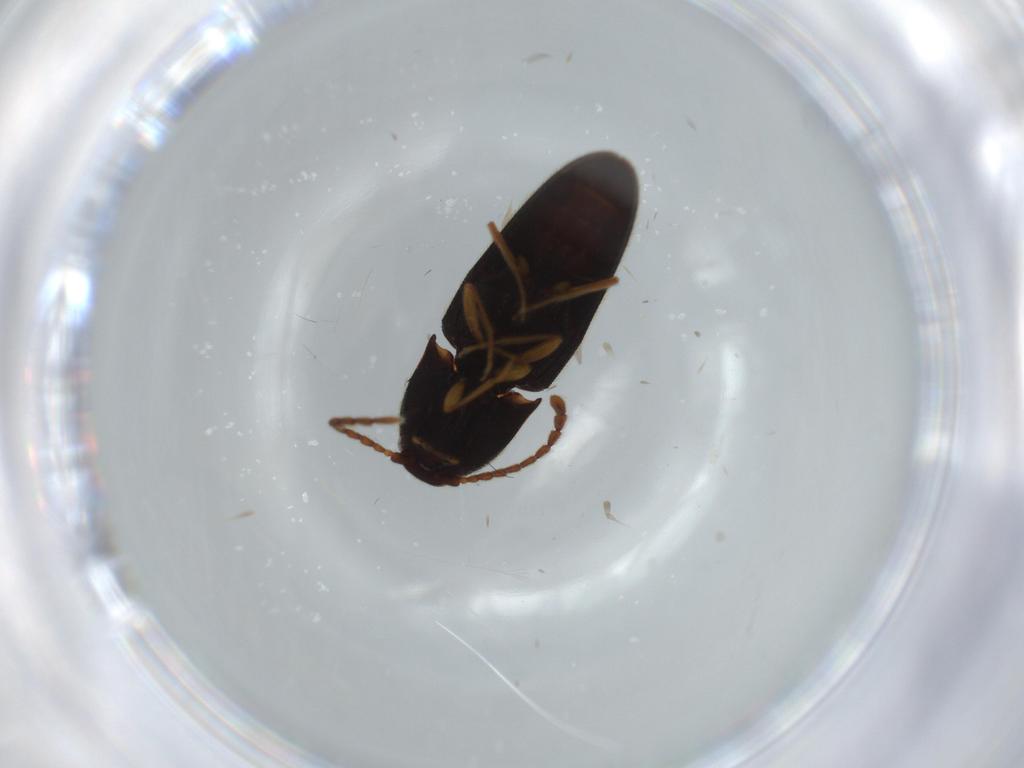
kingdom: Animalia
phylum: Arthropoda
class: Insecta
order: Coleoptera
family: Elateridae
